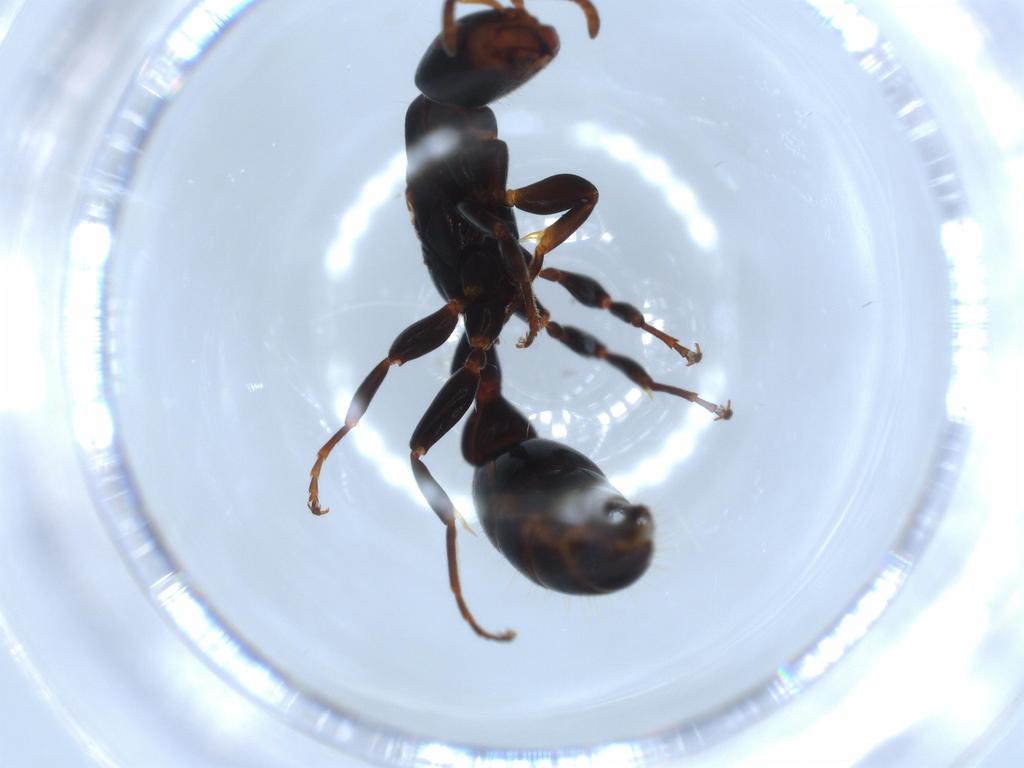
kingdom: Animalia
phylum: Arthropoda
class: Insecta
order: Hymenoptera
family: Formicidae
